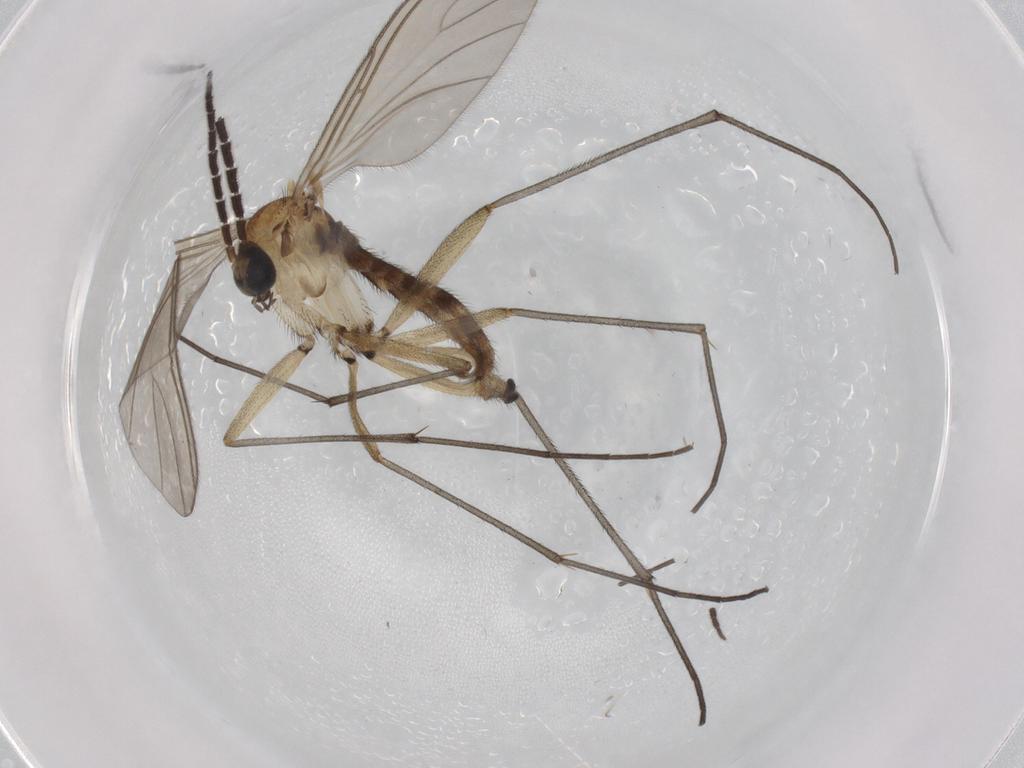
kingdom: Animalia
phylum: Arthropoda
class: Insecta
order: Diptera
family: Sciaridae
